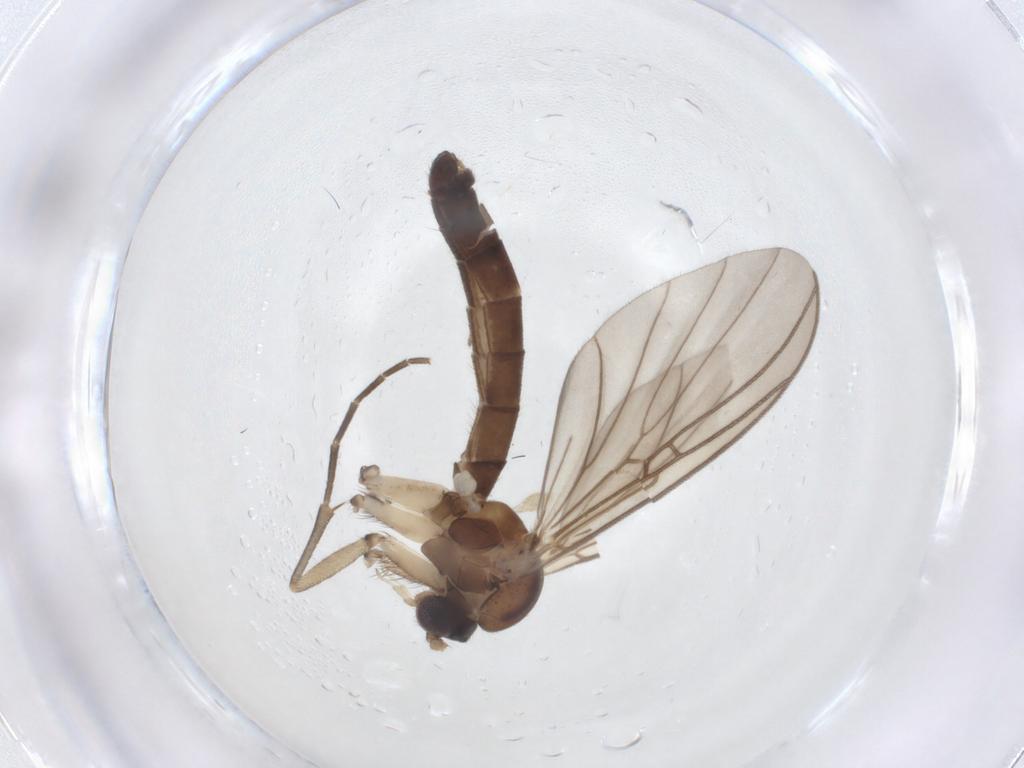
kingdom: Animalia
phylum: Arthropoda
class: Insecta
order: Diptera
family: Mycetophilidae
